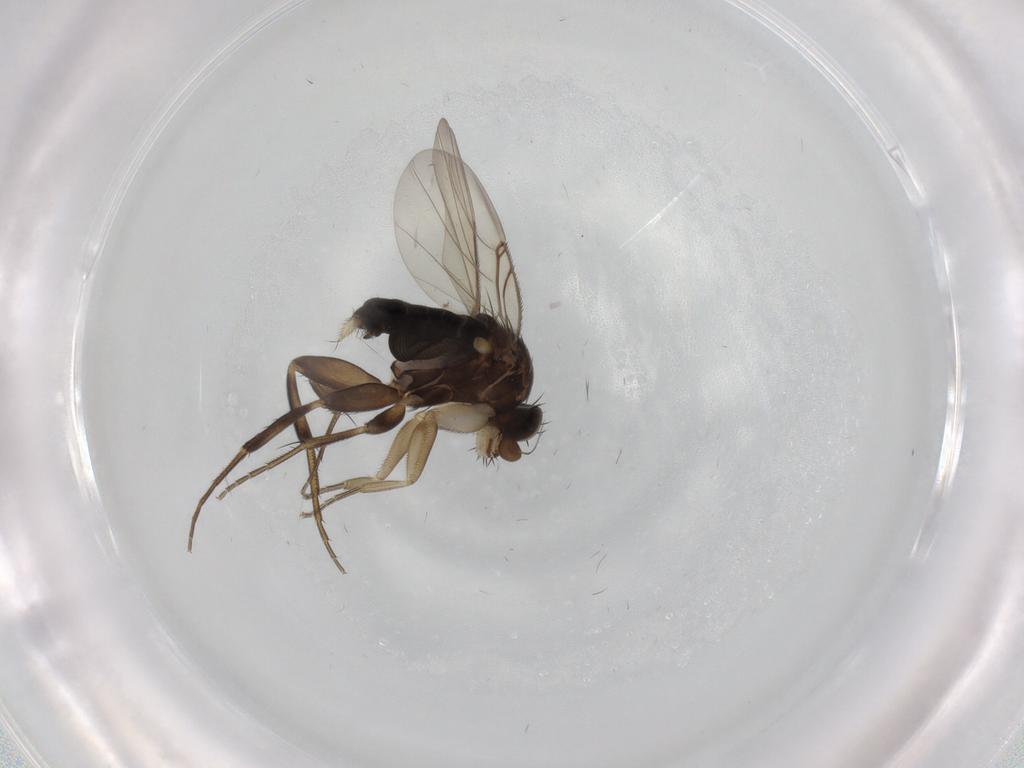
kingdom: Animalia
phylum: Arthropoda
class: Insecta
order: Diptera
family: Phoridae
